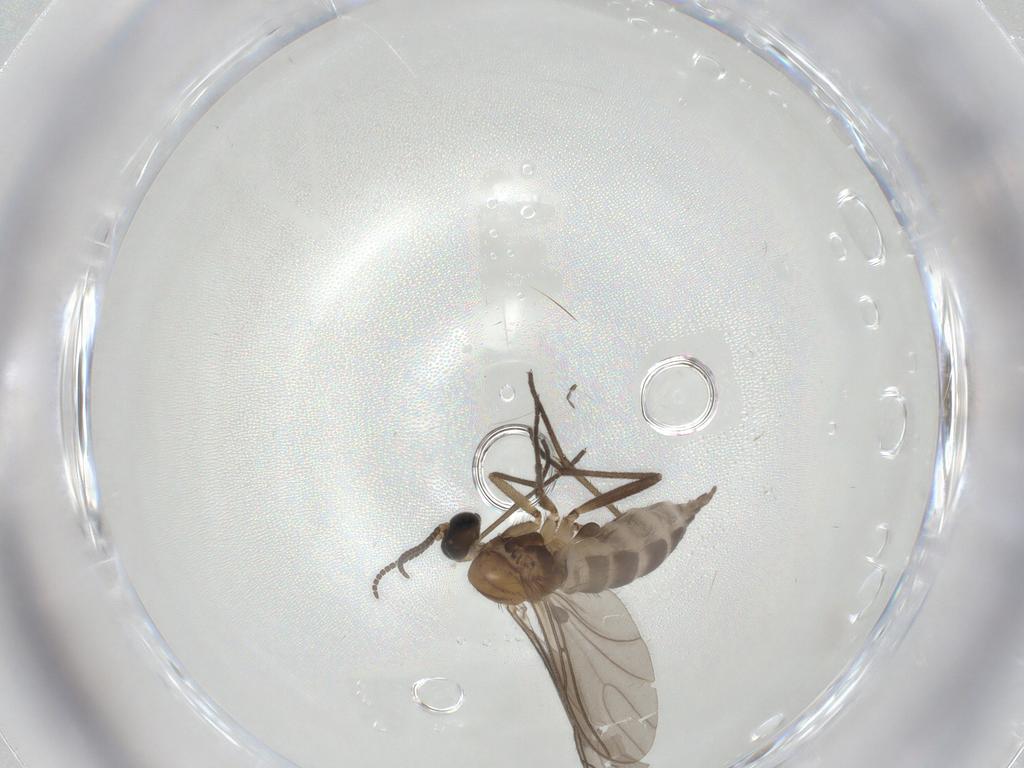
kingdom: Animalia
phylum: Arthropoda
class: Insecta
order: Diptera
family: Sciaridae
